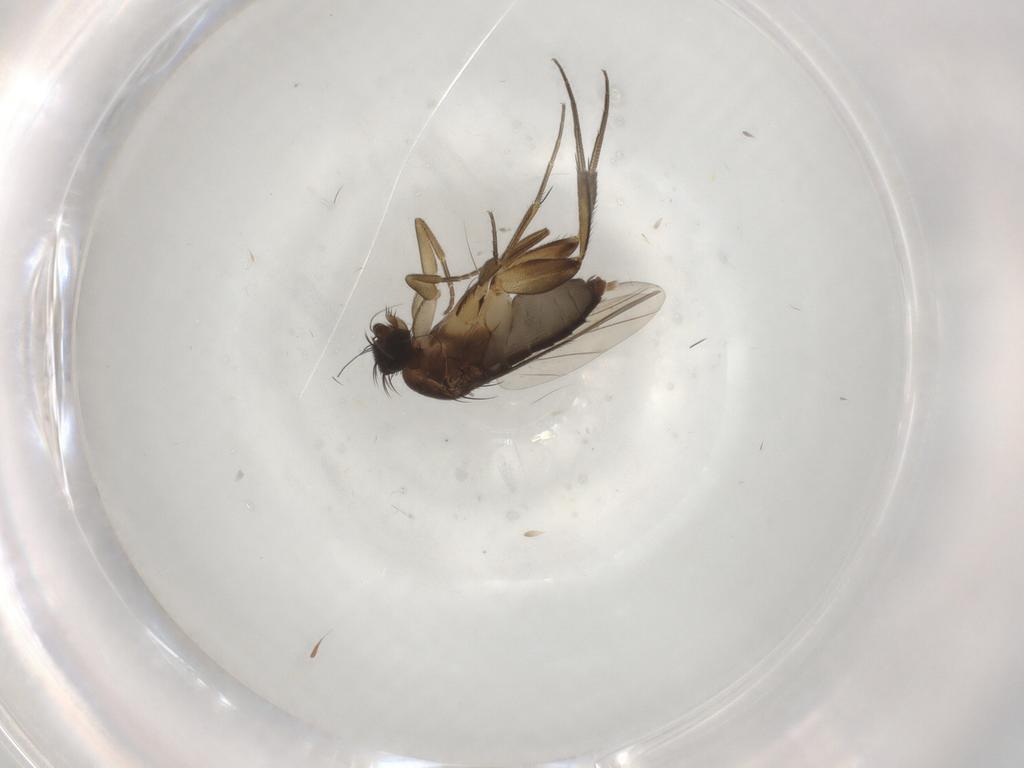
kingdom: Animalia
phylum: Arthropoda
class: Insecta
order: Diptera
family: Phoridae
